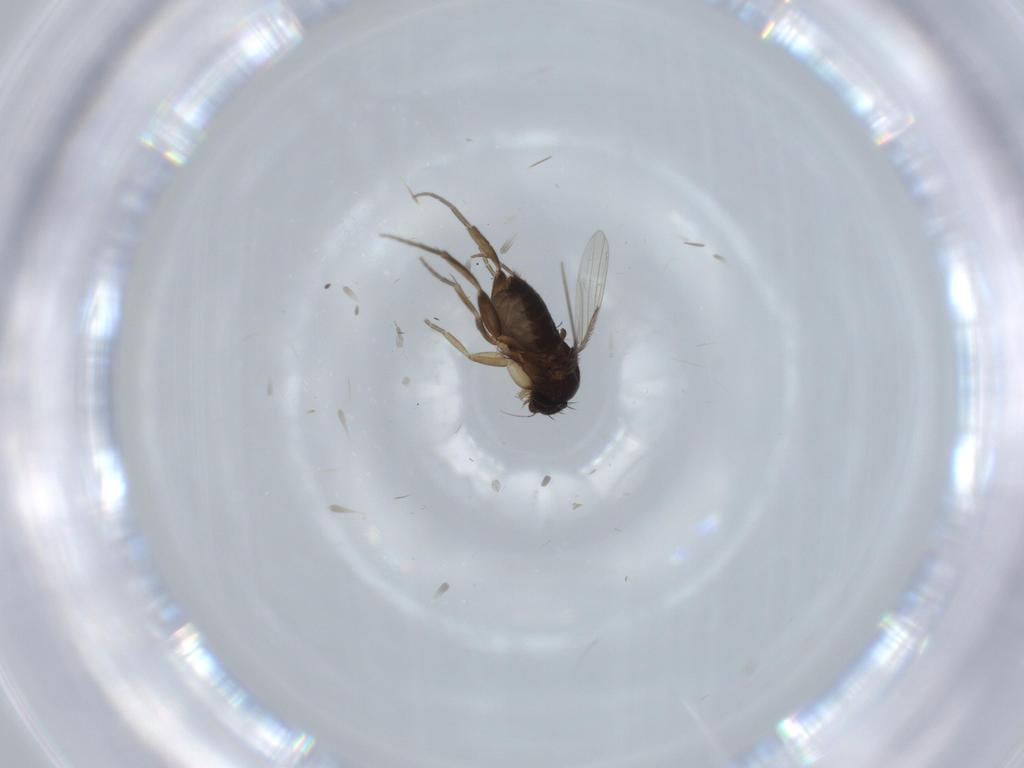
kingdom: Animalia
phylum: Arthropoda
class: Insecta
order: Diptera
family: Phoridae
